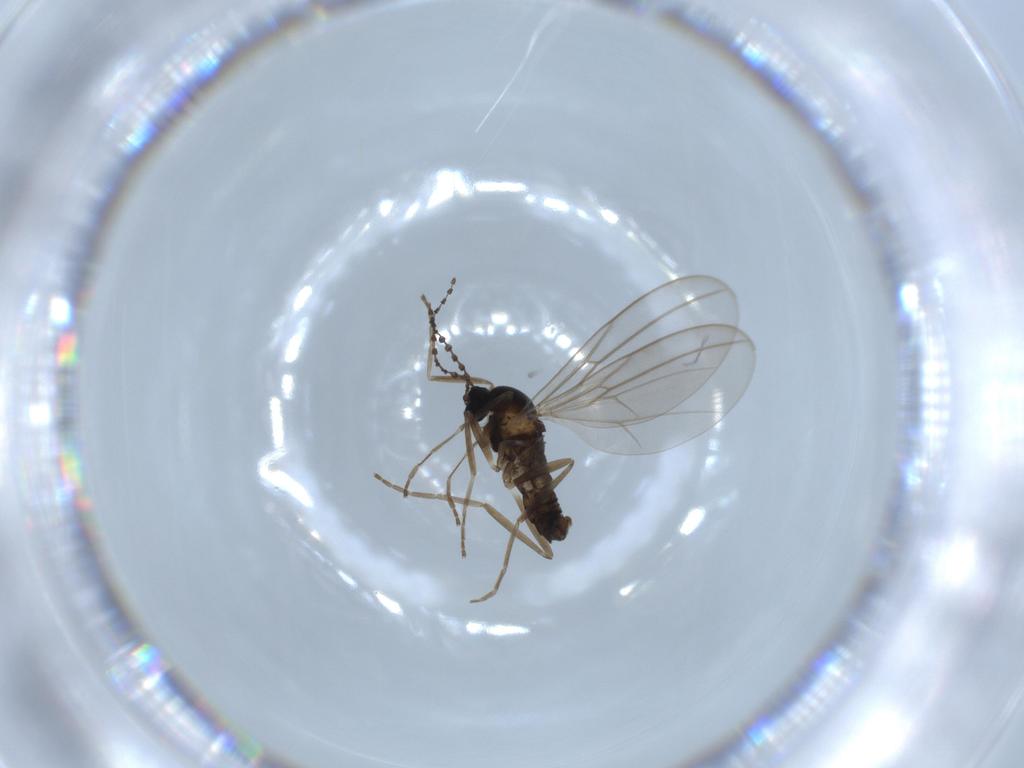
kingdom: Animalia
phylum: Arthropoda
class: Insecta
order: Diptera
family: Cecidomyiidae
